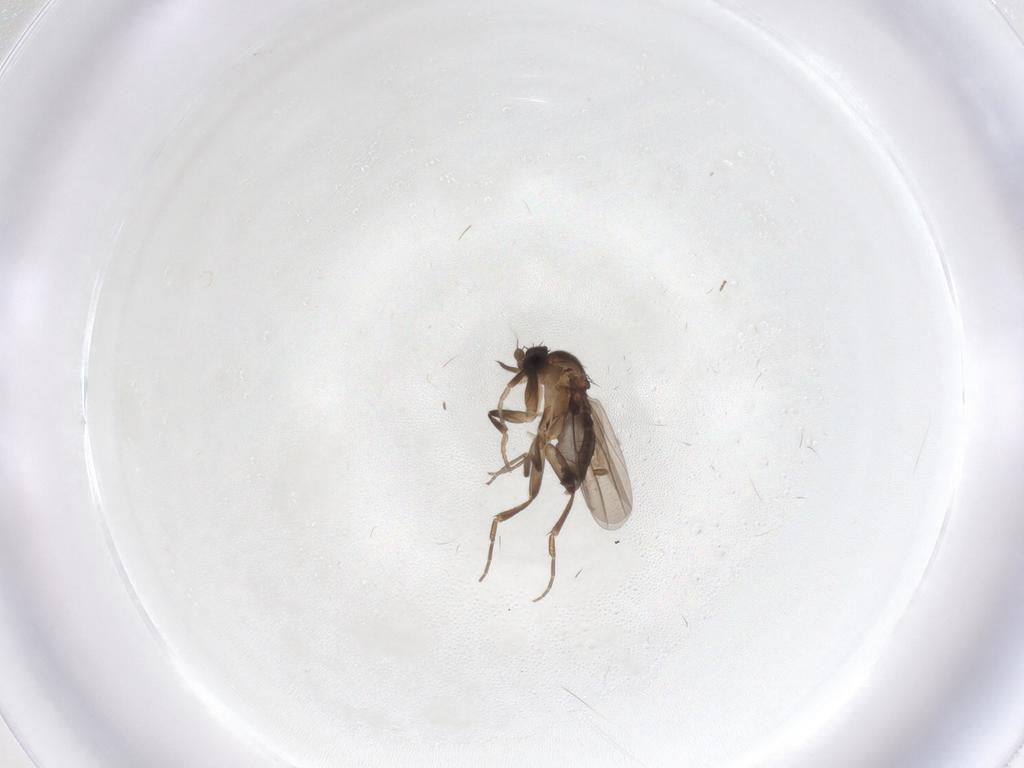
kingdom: Animalia
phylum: Arthropoda
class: Insecta
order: Diptera
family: Phoridae
